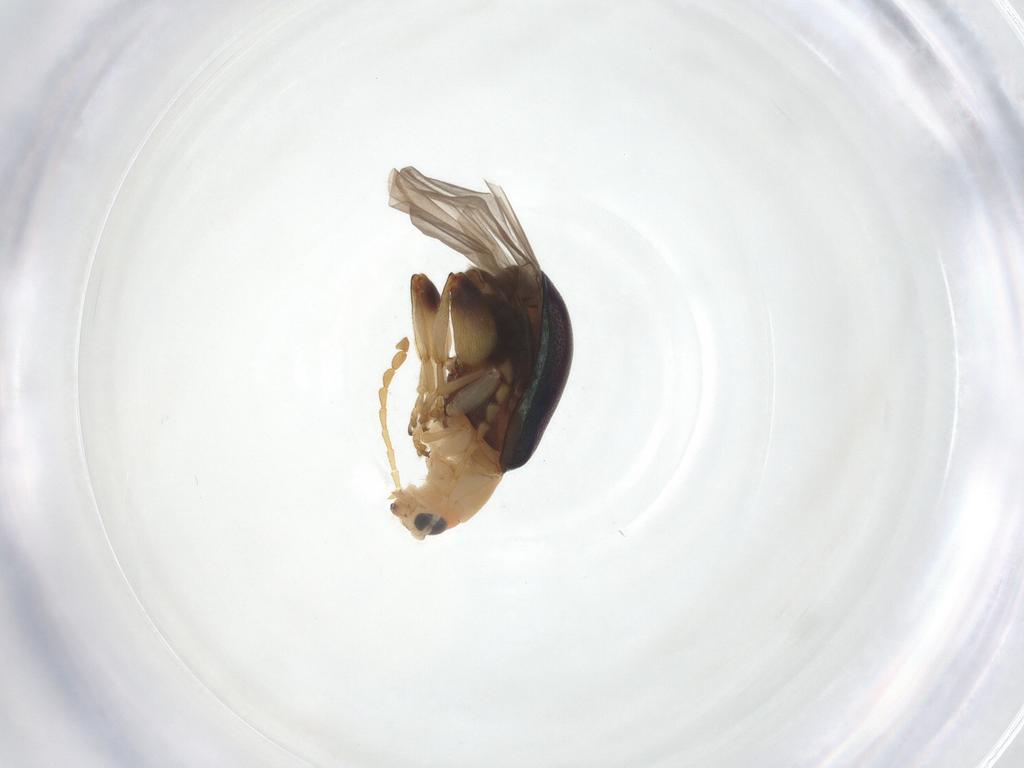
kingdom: Animalia
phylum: Arthropoda
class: Insecta
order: Coleoptera
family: Chrysomelidae
